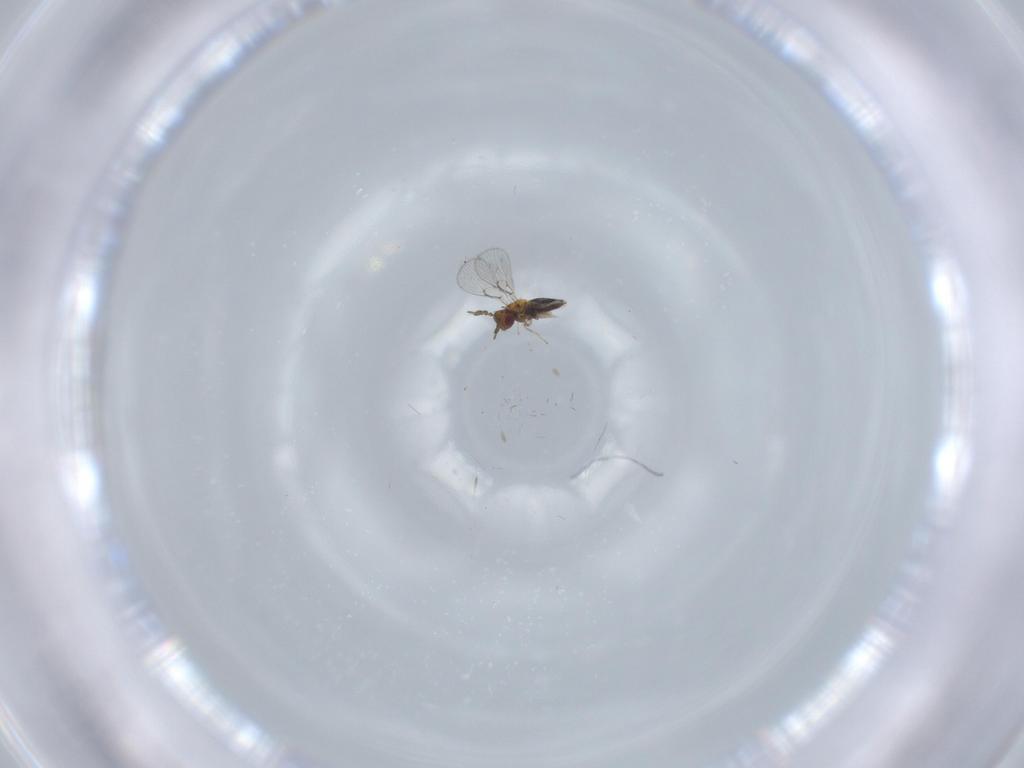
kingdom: Animalia
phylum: Arthropoda
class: Insecta
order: Hymenoptera
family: Trichogrammatidae
